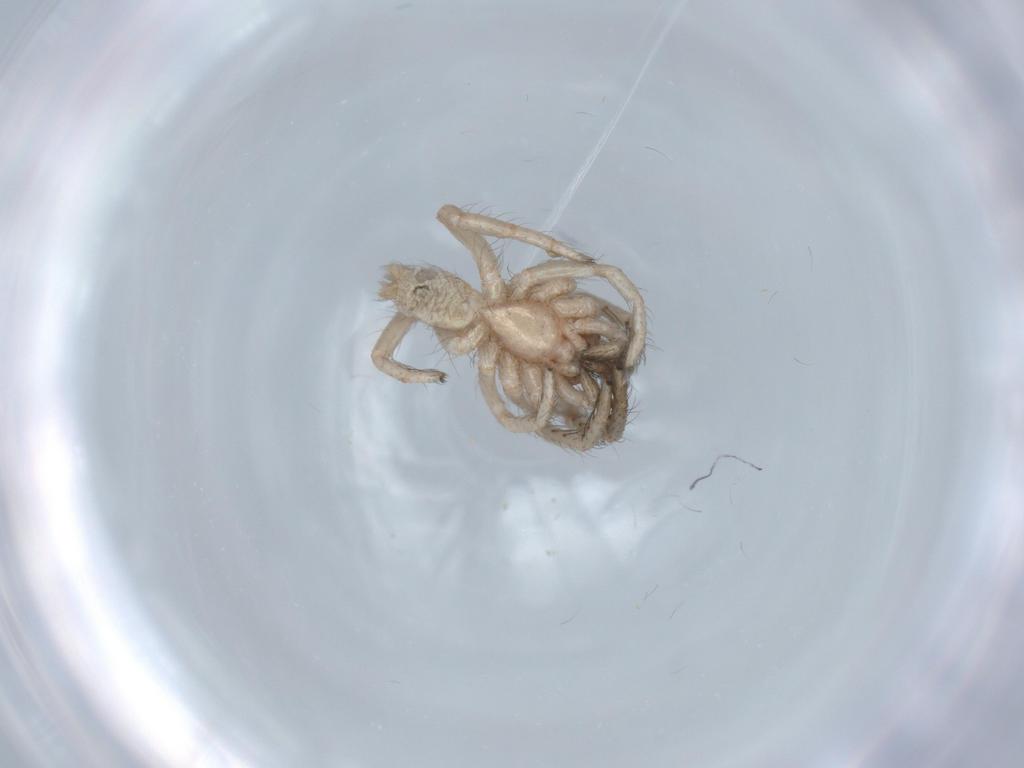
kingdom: Animalia
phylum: Arthropoda
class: Arachnida
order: Araneae
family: Segestriidae
